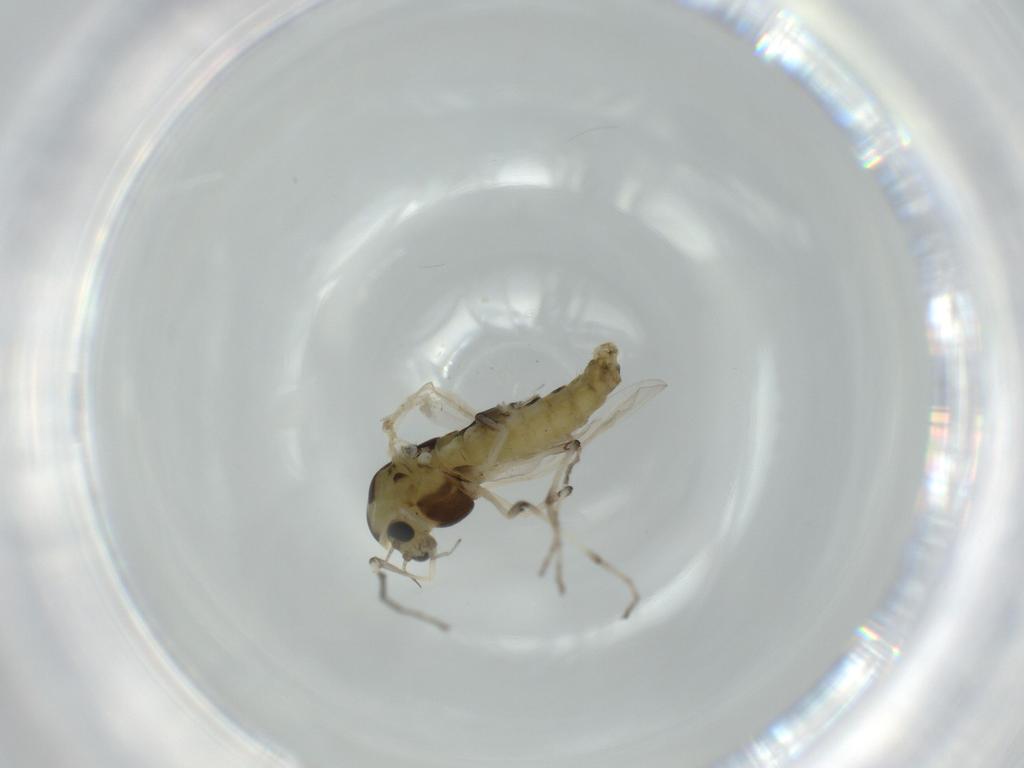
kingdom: Animalia
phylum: Arthropoda
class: Insecta
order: Diptera
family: Chironomidae
